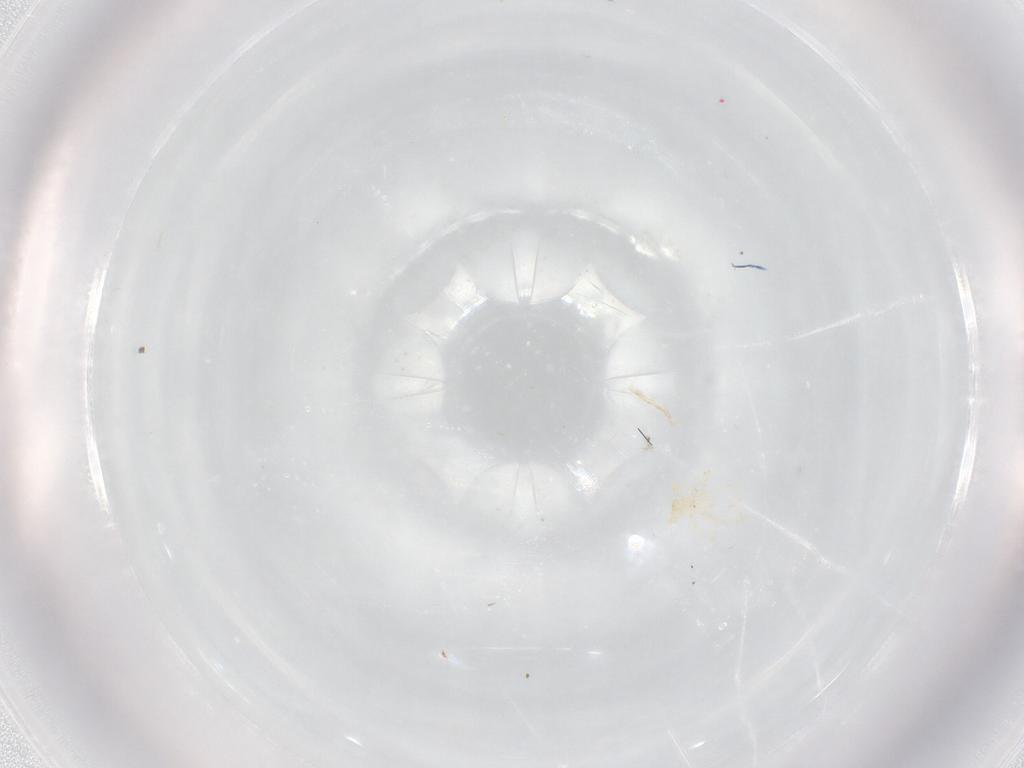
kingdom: Animalia
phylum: Arthropoda
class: Arachnida
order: Trombidiformes
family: Erythraeidae
